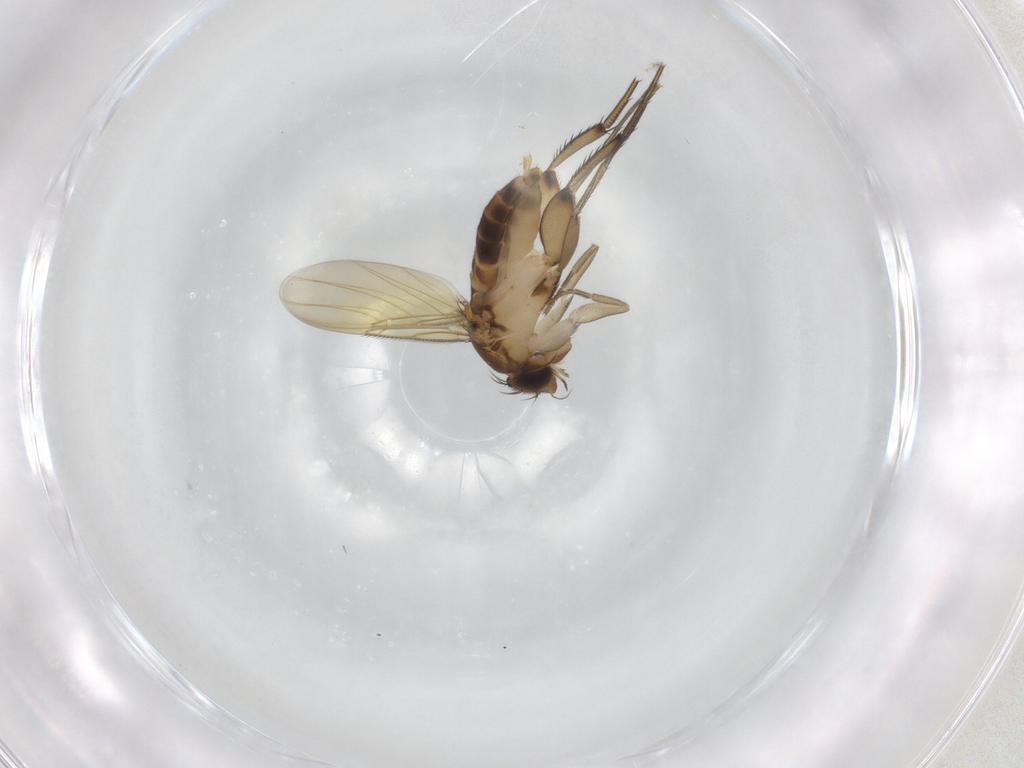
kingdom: Animalia
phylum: Arthropoda
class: Insecta
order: Diptera
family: Phoridae
